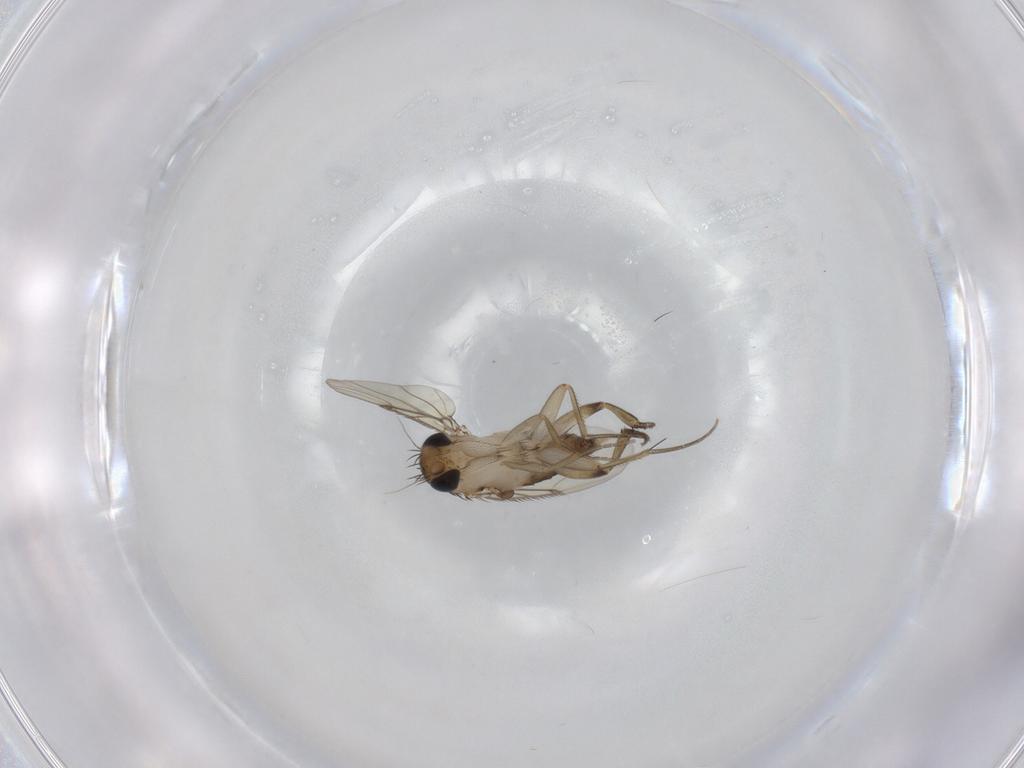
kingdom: Animalia
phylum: Arthropoda
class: Insecta
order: Diptera
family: Phoridae
